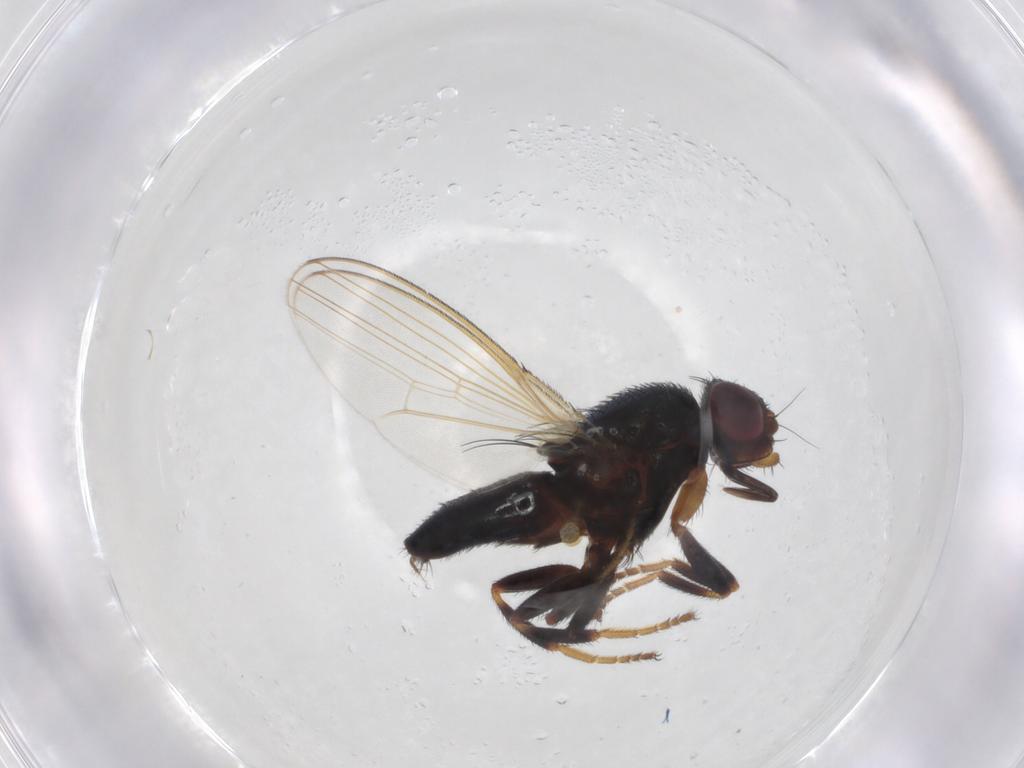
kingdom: Animalia
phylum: Arthropoda
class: Insecta
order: Diptera
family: Milichiidae
